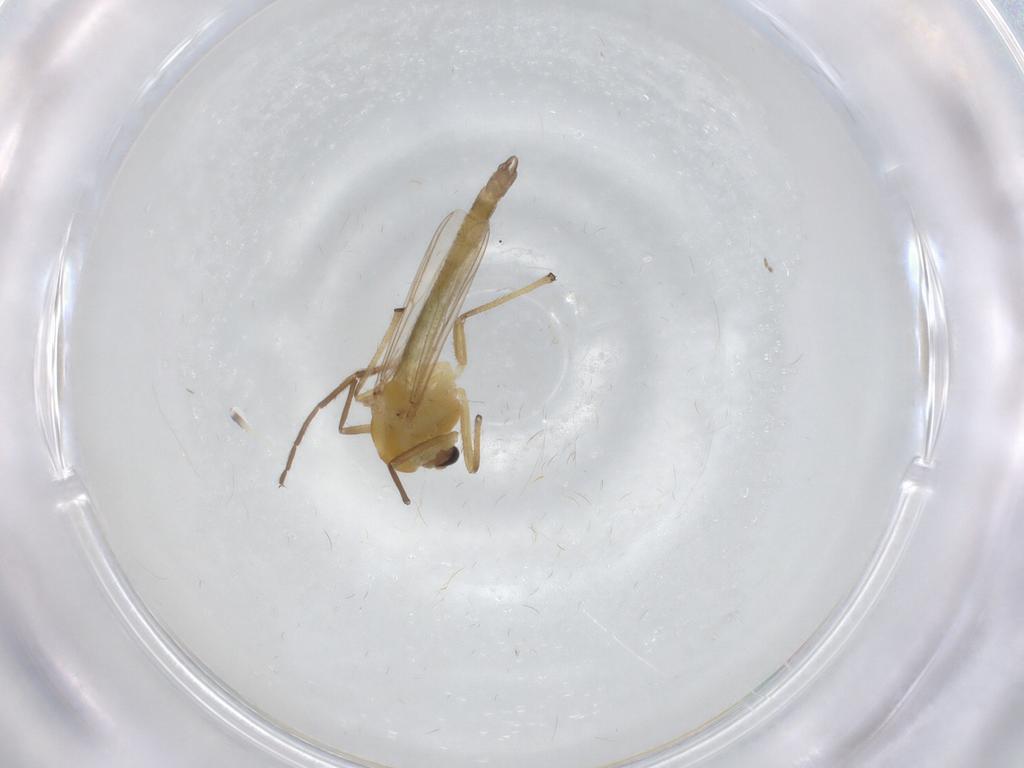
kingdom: Animalia
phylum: Arthropoda
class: Insecta
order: Diptera
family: Chironomidae
